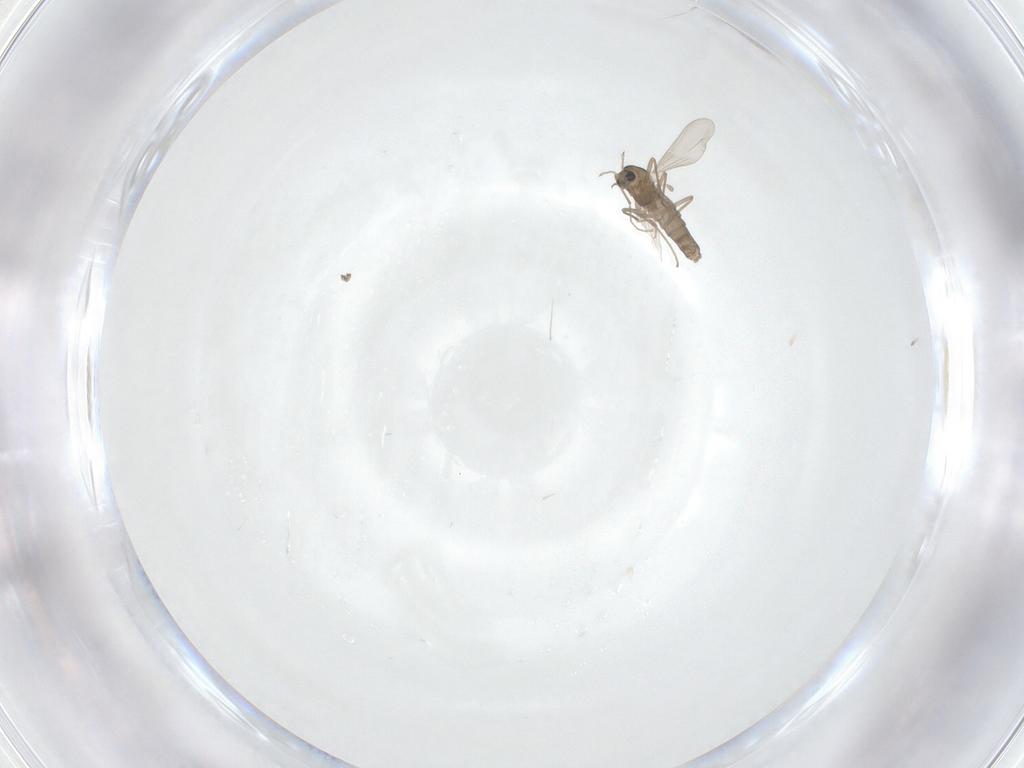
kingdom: Animalia
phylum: Arthropoda
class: Insecta
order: Diptera
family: Chironomidae
